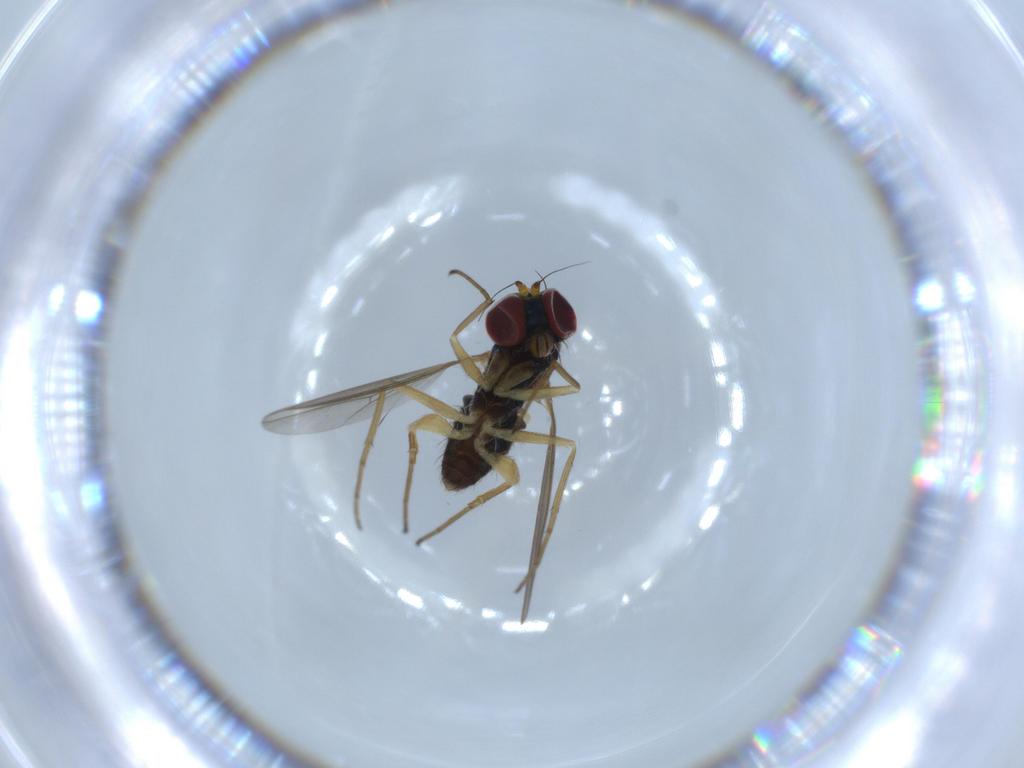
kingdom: Animalia
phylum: Arthropoda
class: Insecta
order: Diptera
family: Dolichopodidae
